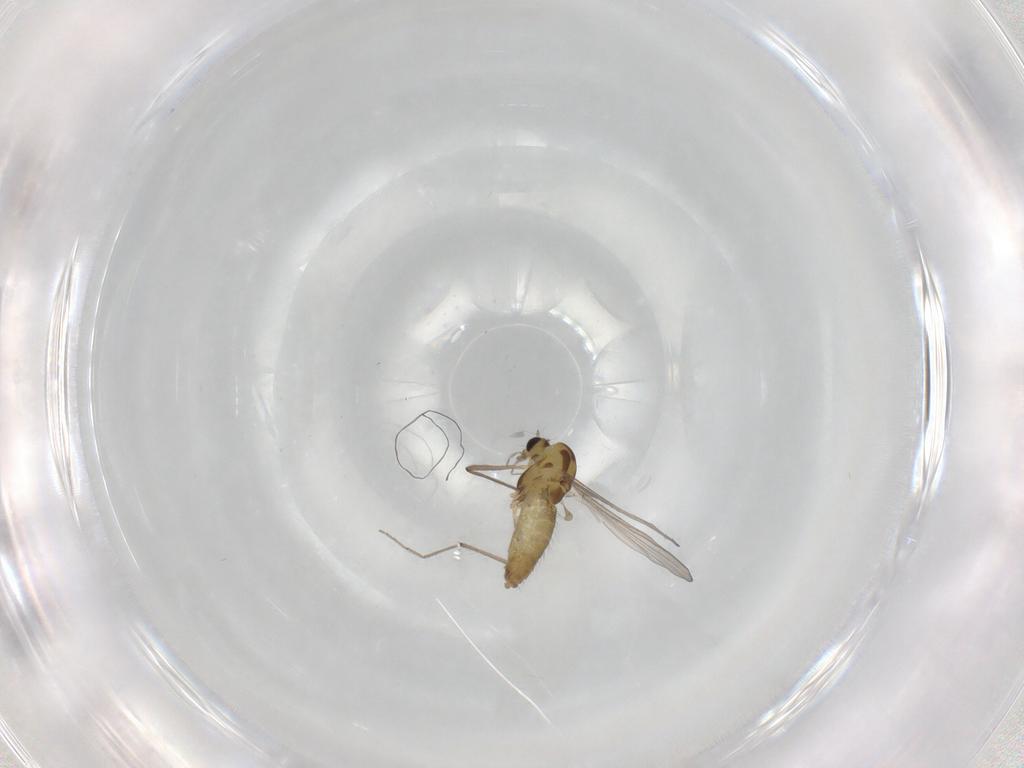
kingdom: Animalia
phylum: Arthropoda
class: Insecta
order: Diptera
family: Chironomidae
